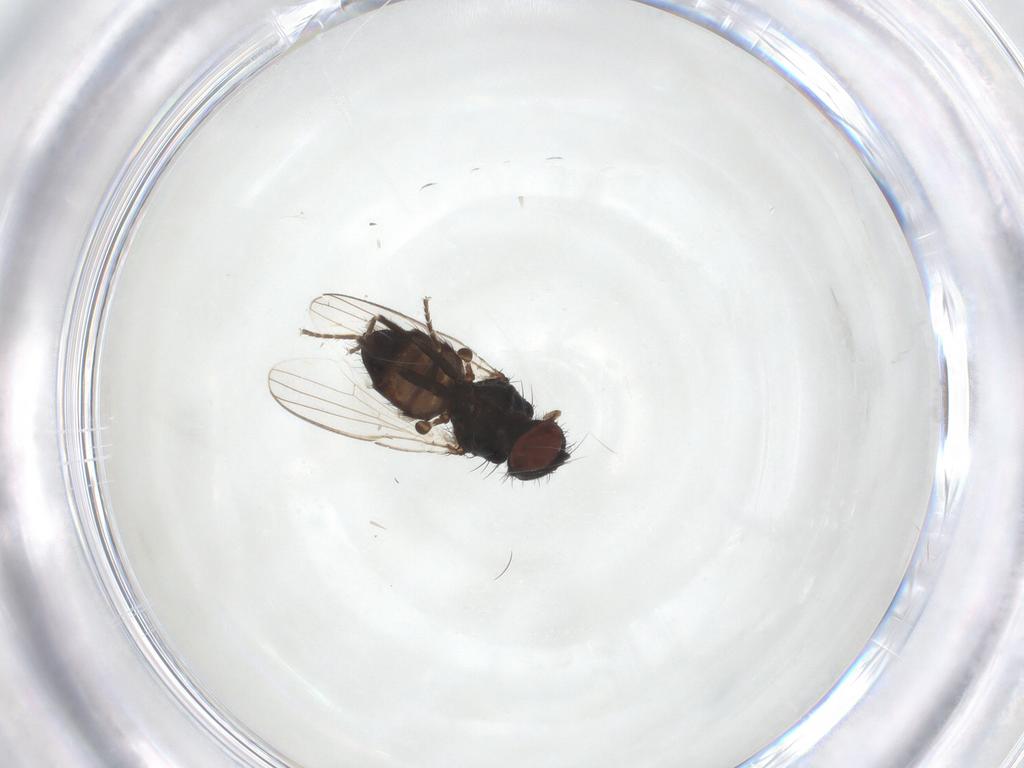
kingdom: Animalia
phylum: Arthropoda
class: Insecta
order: Diptera
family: Milichiidae
